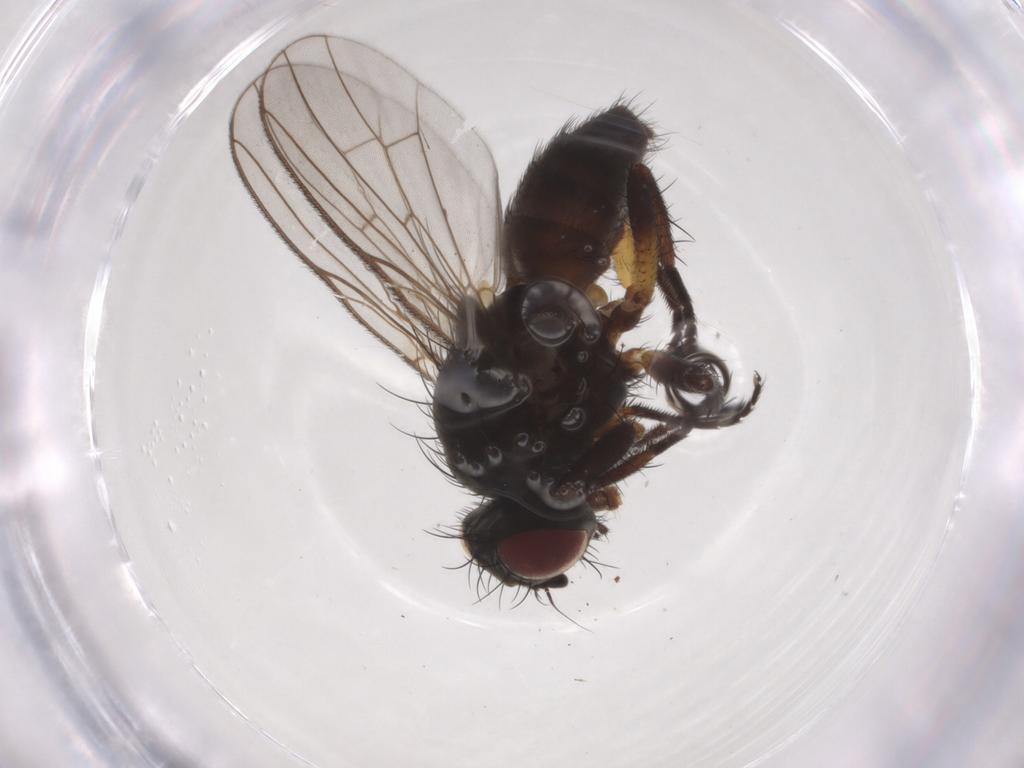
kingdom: Animalia
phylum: Arthropoda
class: Insecta
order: Diptera
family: Muscidae
